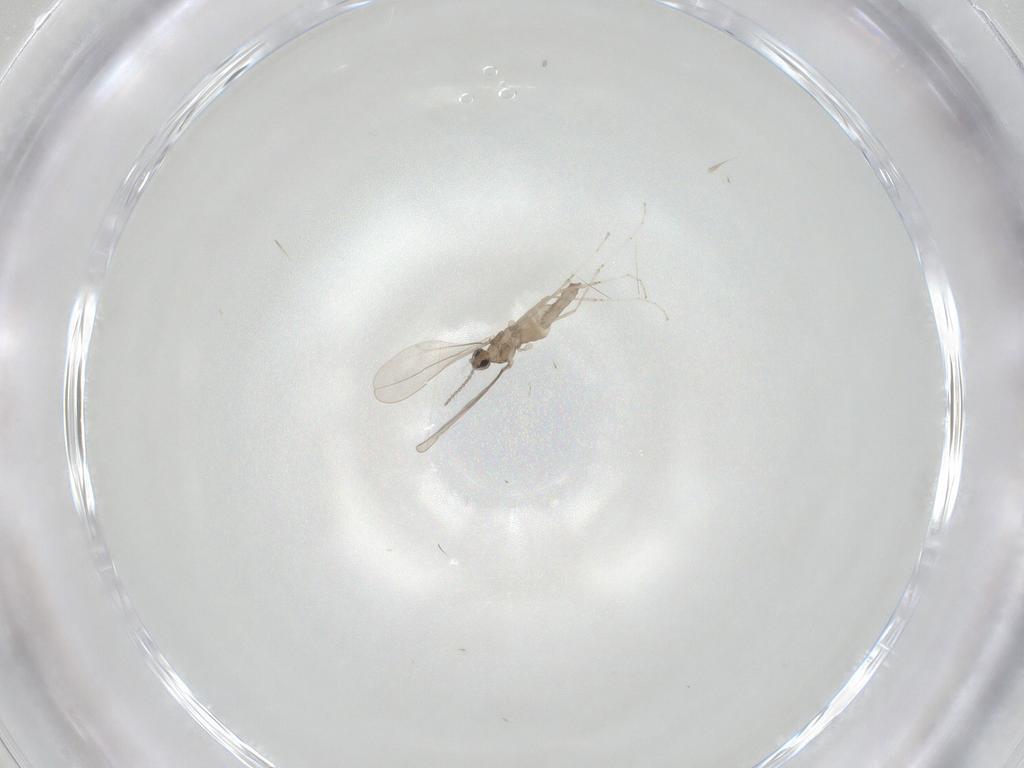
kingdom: Animalia
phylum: Arthropoda
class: Insecta
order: Diptera
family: Cecidomyiidae
